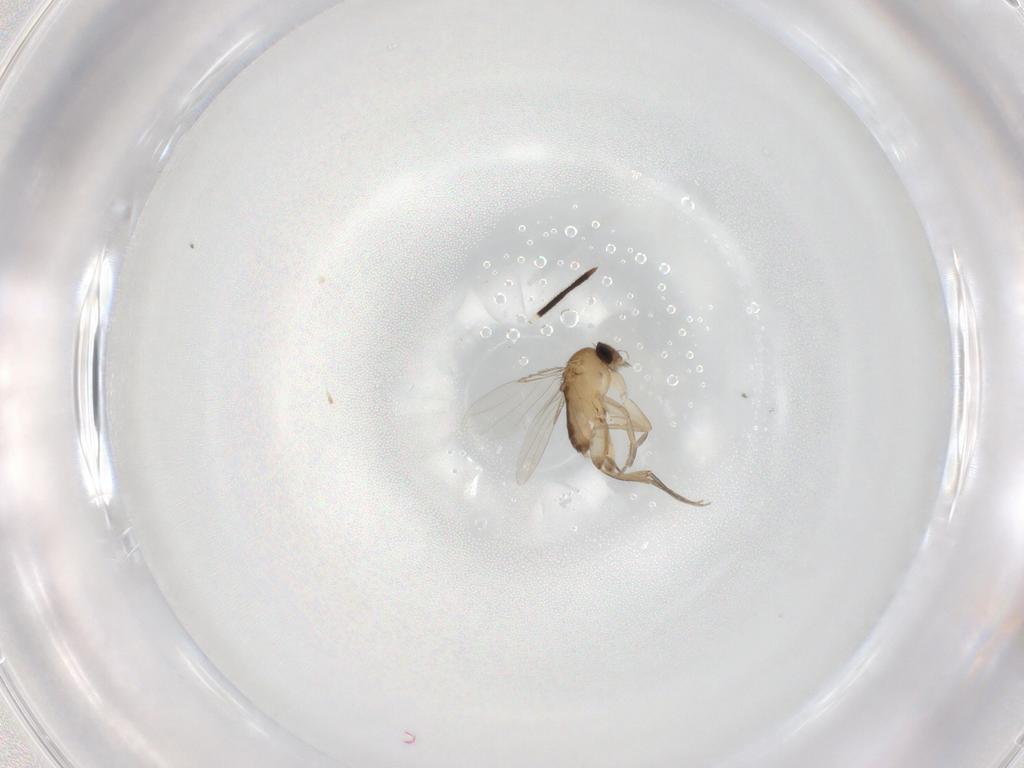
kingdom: Animalia
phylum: Arthropoda
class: Insecta
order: Diptera
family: Phoridae
